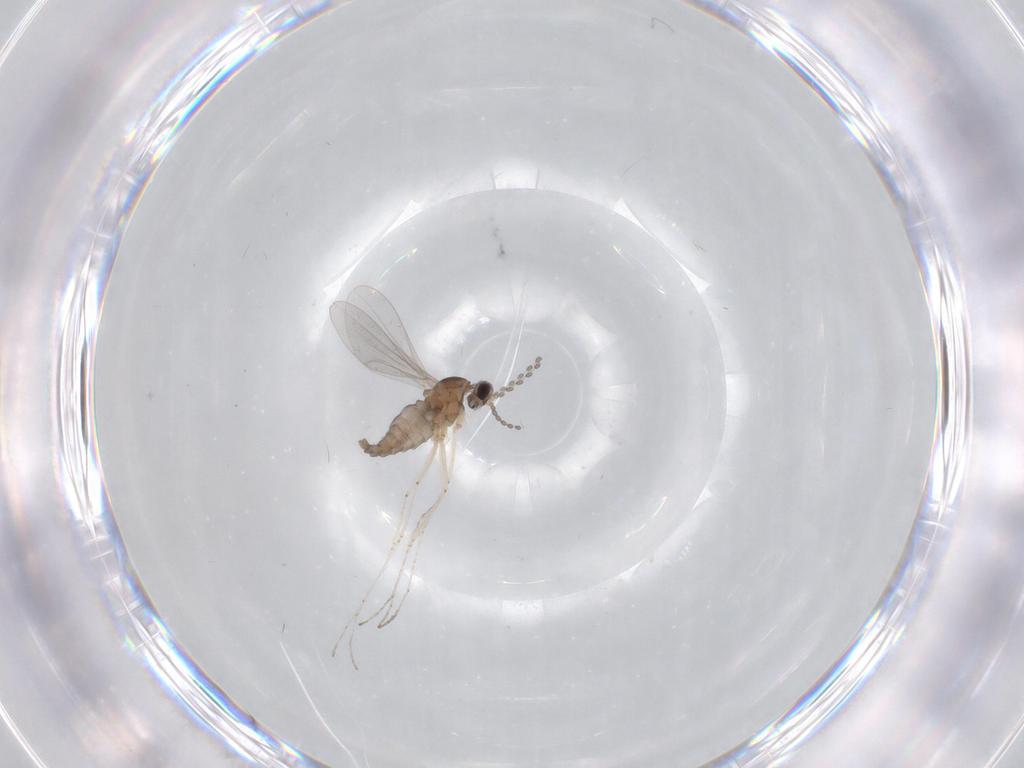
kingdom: Animalia
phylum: Arthropoda
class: Insecta
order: Diptera
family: Cecidomyiidae
